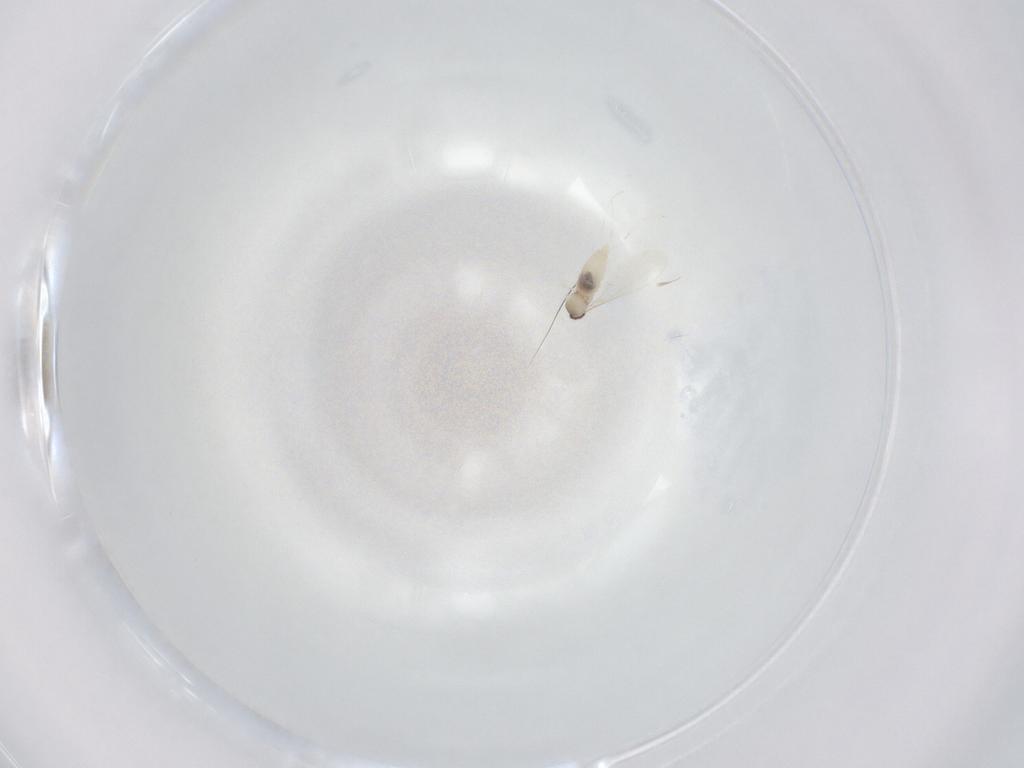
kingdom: Animalia
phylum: Arthropoda
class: Insecta
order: Diptera
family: Cecidomyiidae
